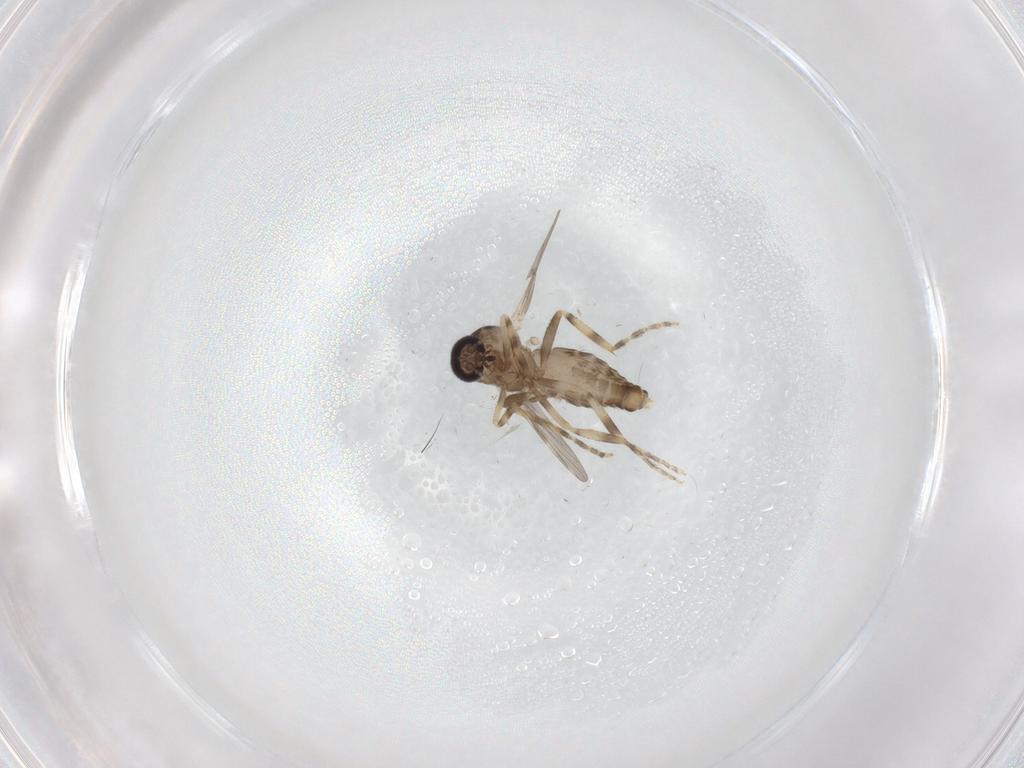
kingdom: Animalia
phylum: Arthropoda
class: Insecta
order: Diptera
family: Ceratopogonidae
